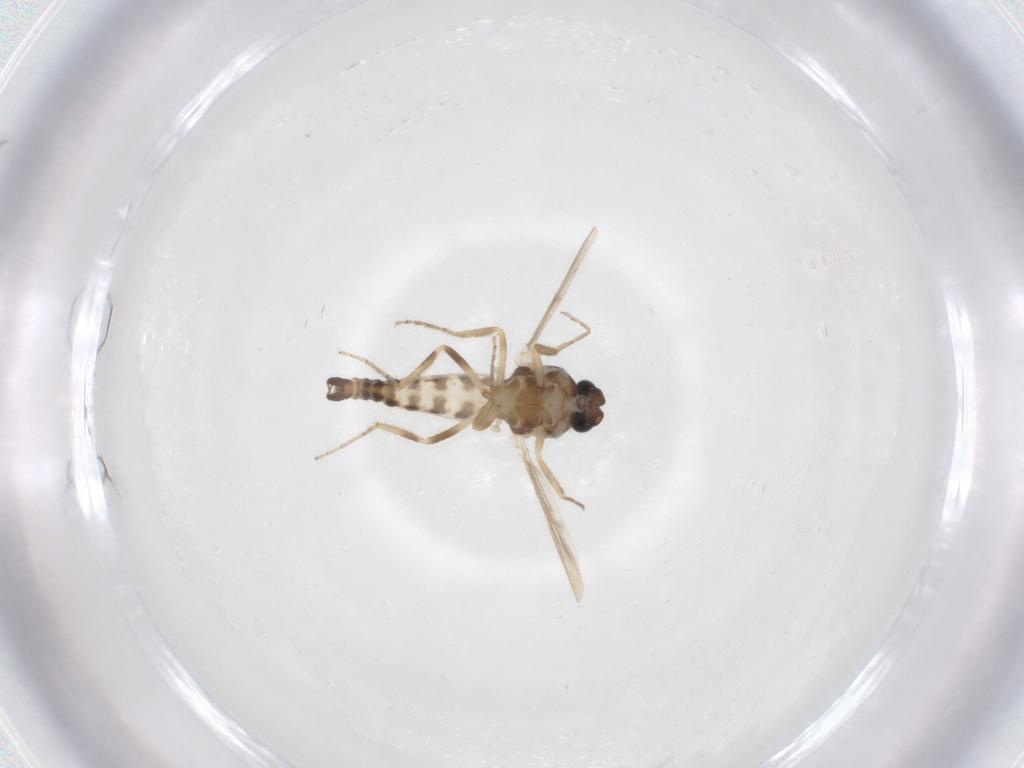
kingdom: Animalia
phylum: Arthropoda
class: Insecta
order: Diptera
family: Ceratopogonidae
